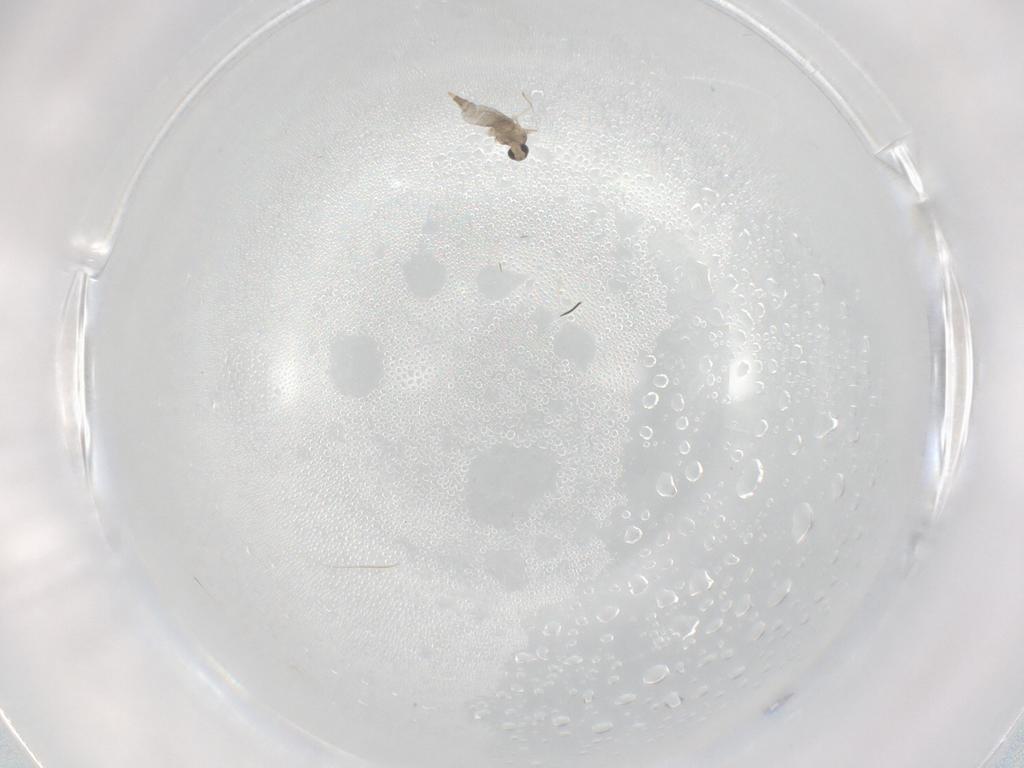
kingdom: Animalia
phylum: Arthropoda
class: Insecta
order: Diptera
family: Cecidomyiidae
